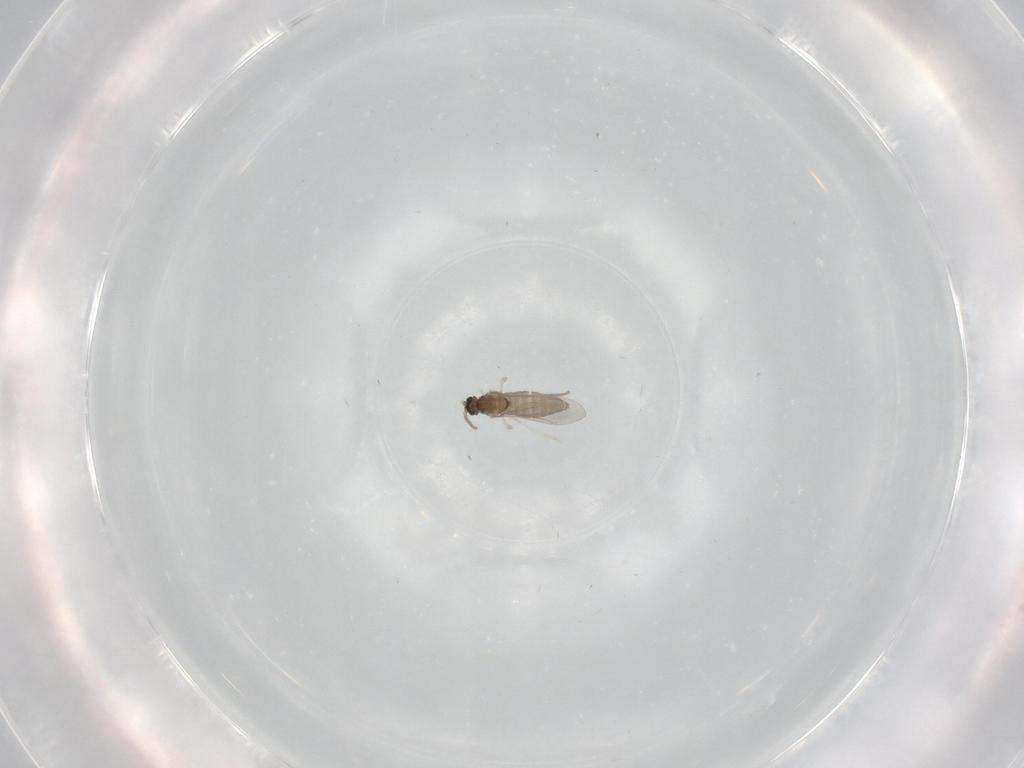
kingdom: Animalia
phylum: Arthropoda
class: Insecta
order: Diptera
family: Cecidomyiidae
